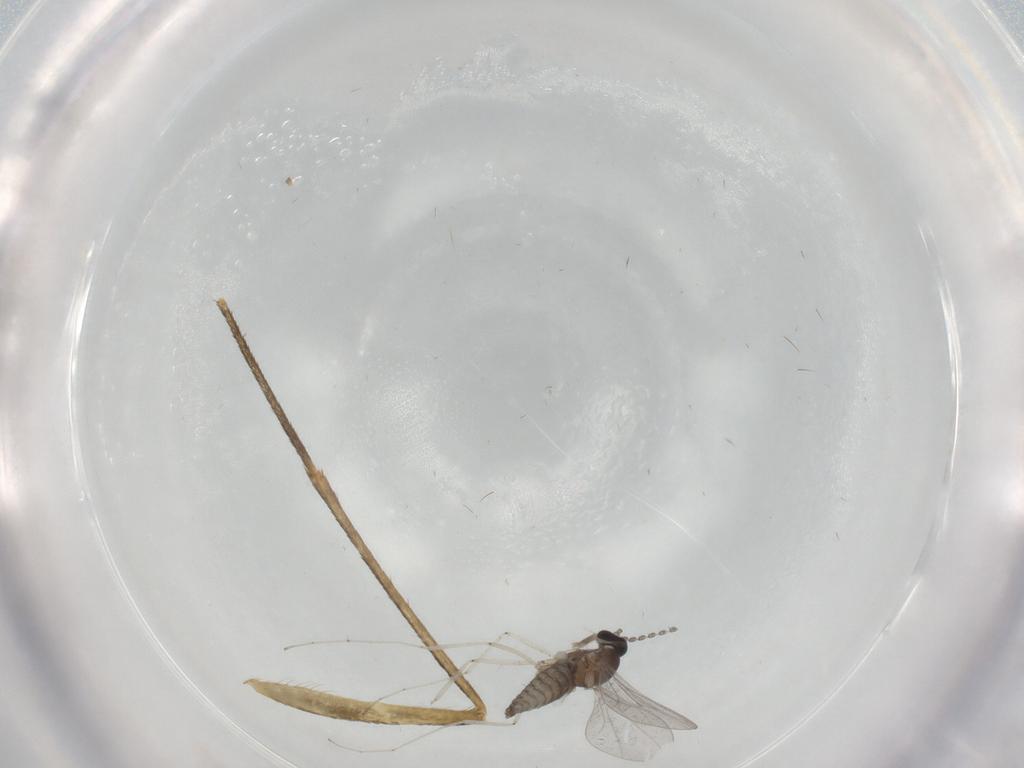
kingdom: Animalia
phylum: Arthropoda
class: Insecta
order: Diptera
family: Cecidomyiidae
